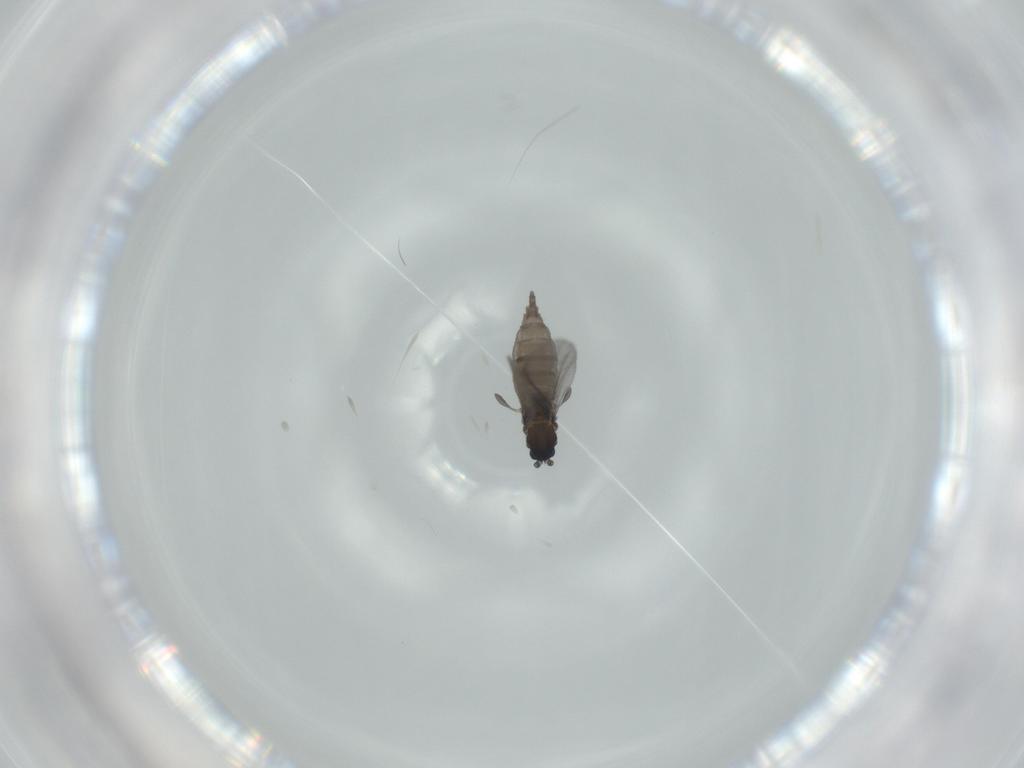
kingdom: Animalia
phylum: Arthropoda
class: Insecta
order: Diptera
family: Sciaridae
